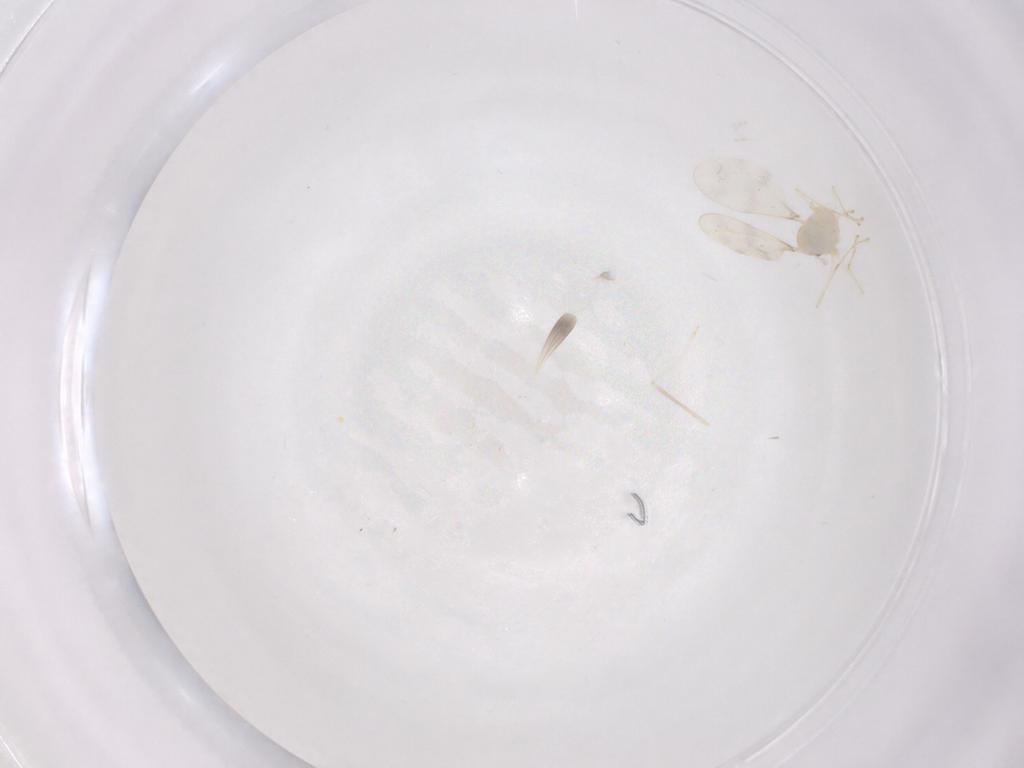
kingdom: Animalia
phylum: Arthropoda
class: Insecta
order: Diptera
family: Cecidomyiidae
